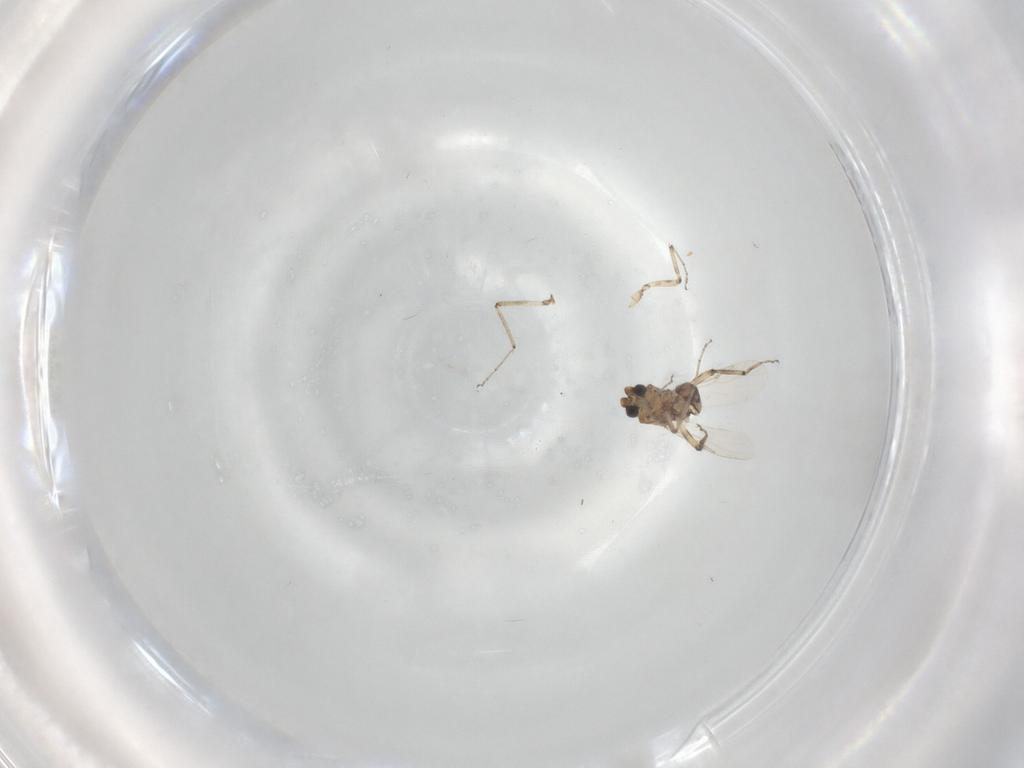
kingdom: Animalia
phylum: Arthropoda
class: Insecta
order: Diptera
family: Ceratopogonidae
